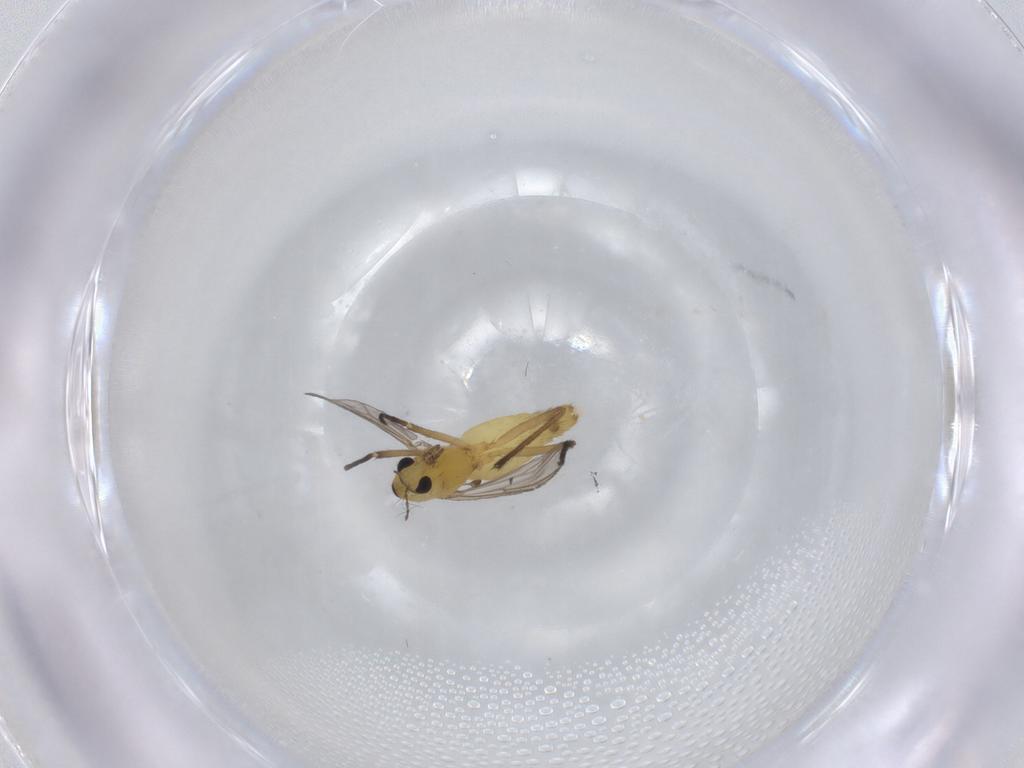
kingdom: Animalia
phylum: Arthropoda
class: Insecta
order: Diptera
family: Chironomidae
